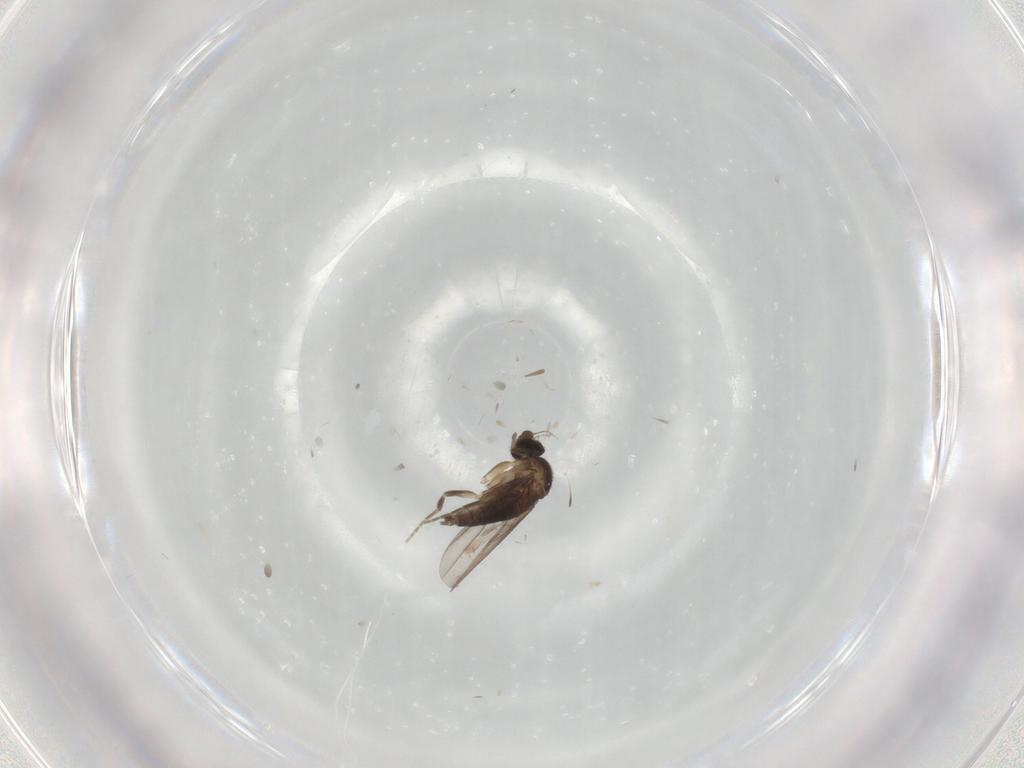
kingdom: Animalia
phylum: Arthropoda
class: Insecta
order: Diptera
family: Phoridae
